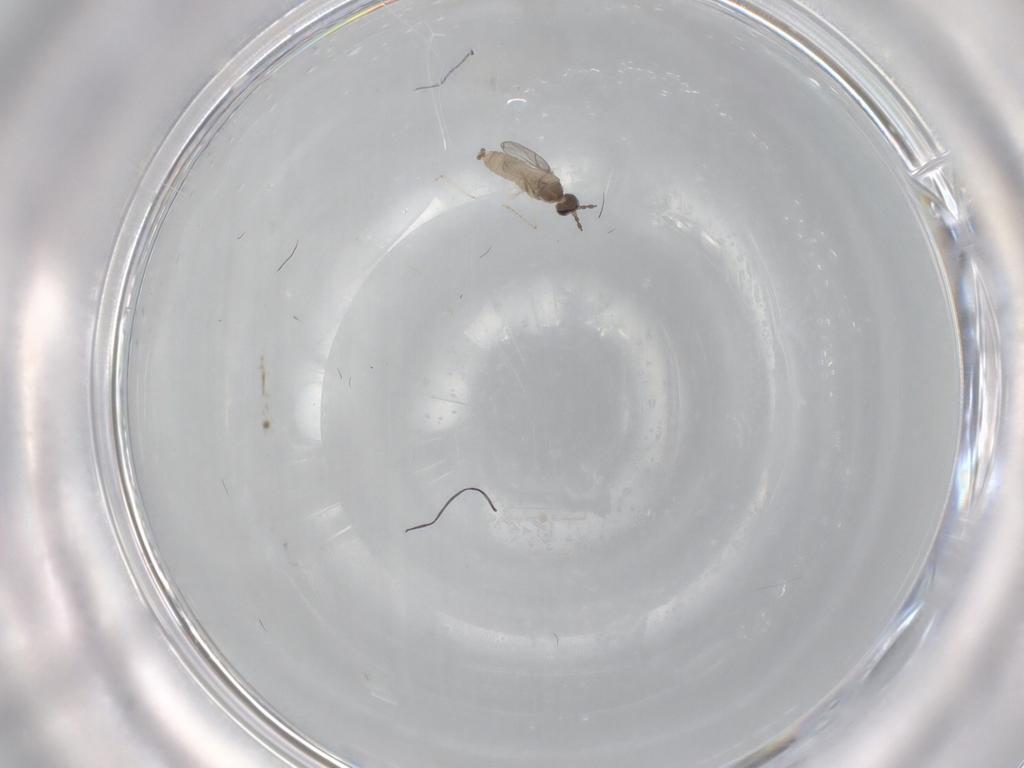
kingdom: Animalia
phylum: Arthropoda
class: Insecta
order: Diptera
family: Cecidomyiidae
